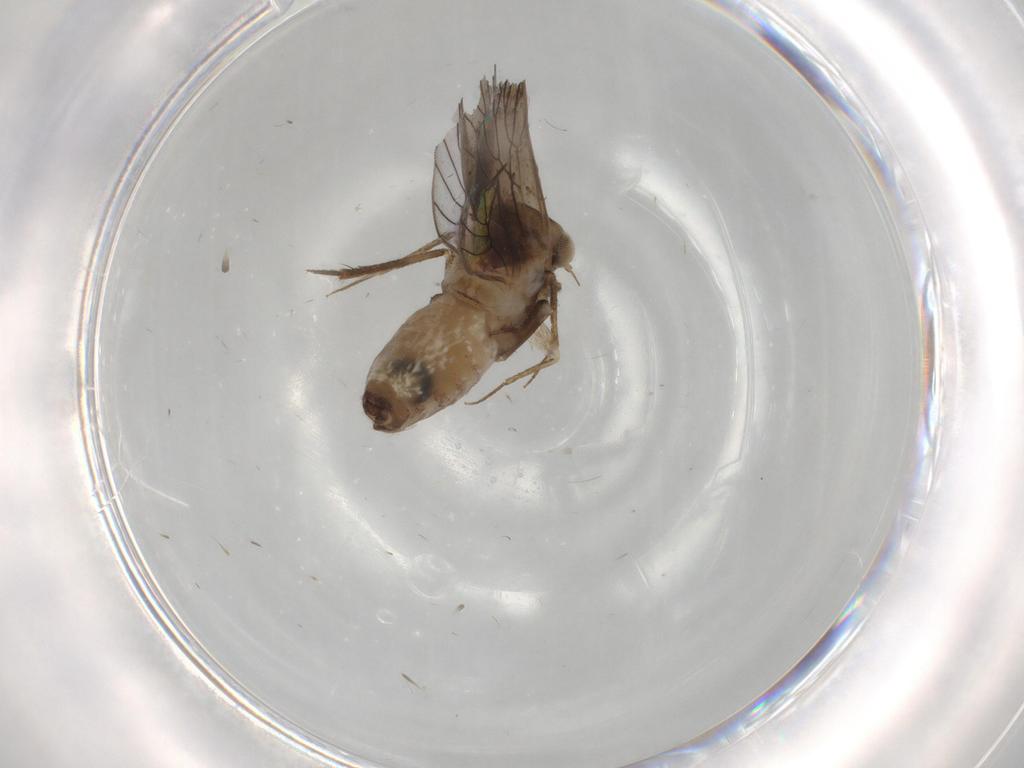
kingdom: Animalia
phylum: Arthropoda
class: Insecta
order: Psocodea
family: Lepidopsocidae
